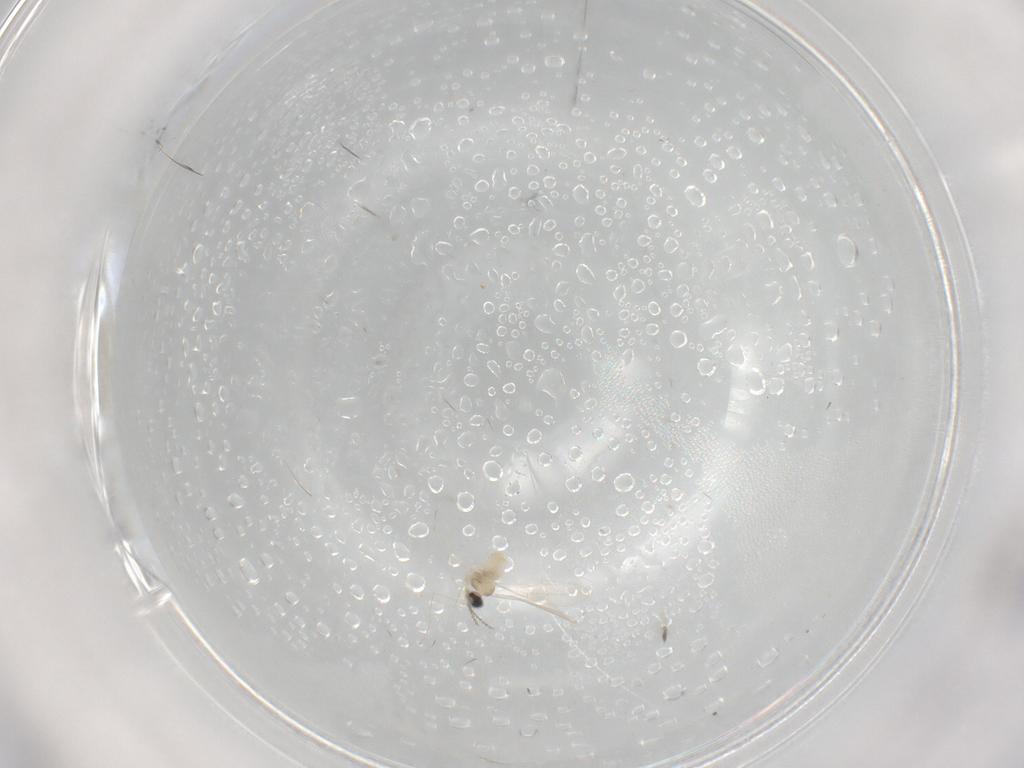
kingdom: Animalia
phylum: Arthropoda
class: Insecta
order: Diptera
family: Cecidomyiidae
